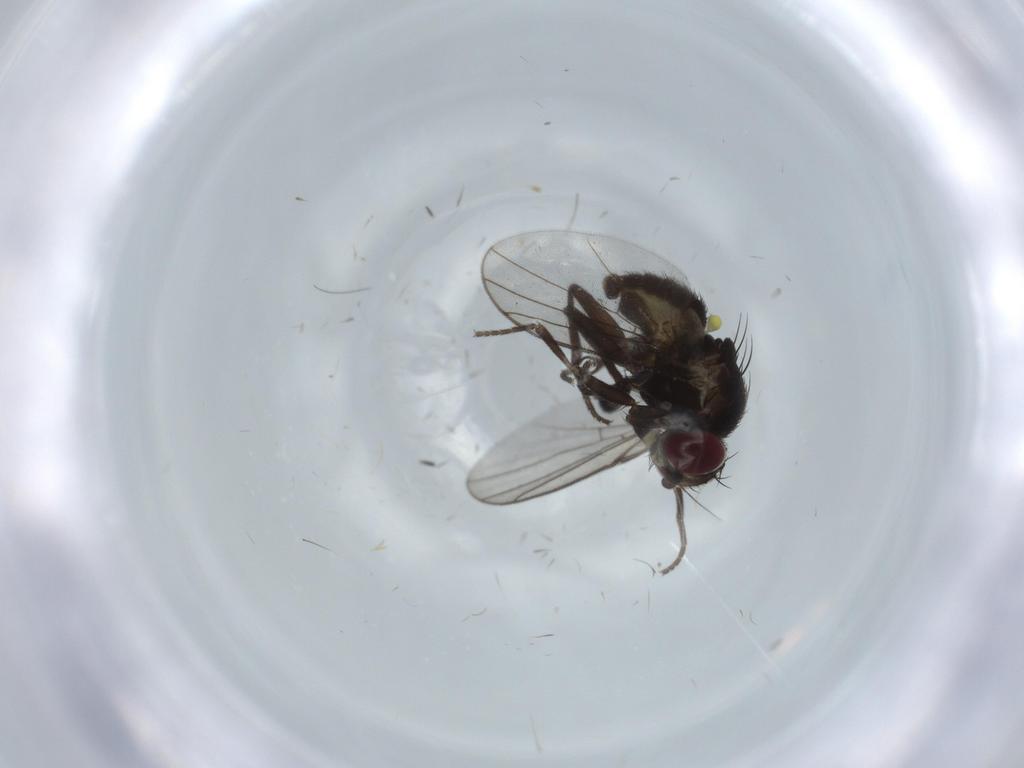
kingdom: Animalia
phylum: Arthropoda
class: Insecta
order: Diptera
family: Agromyzidae
